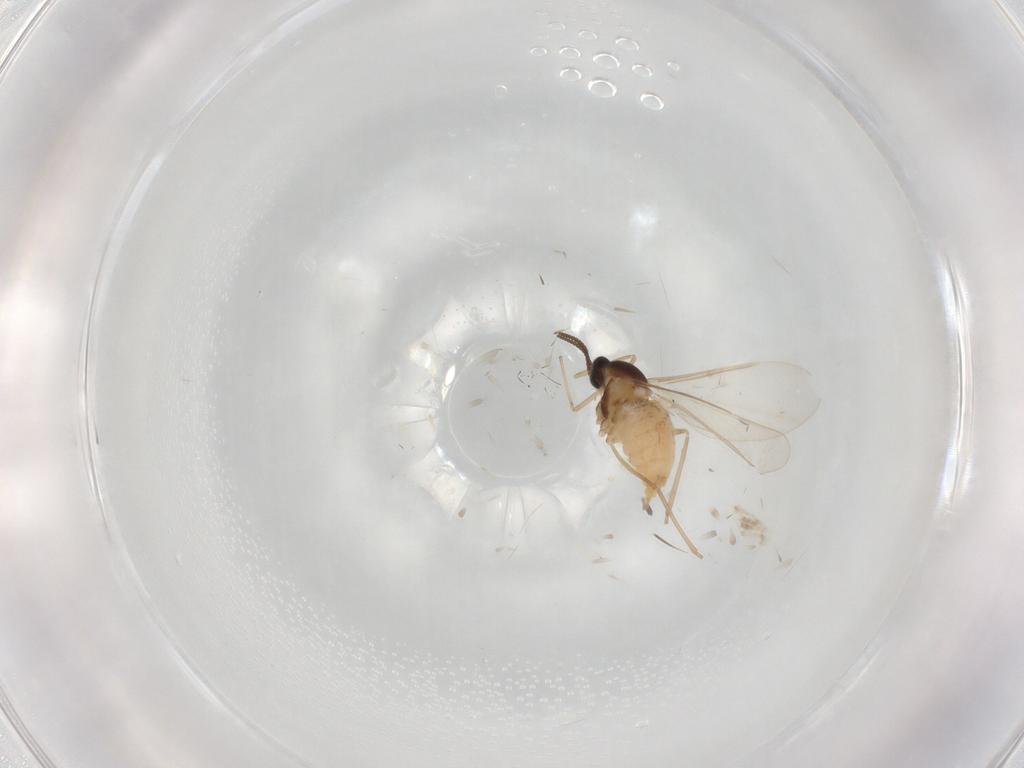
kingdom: Animalia
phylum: Arthropoda
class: Insecta
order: Diptera
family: Cecidomyiidae
